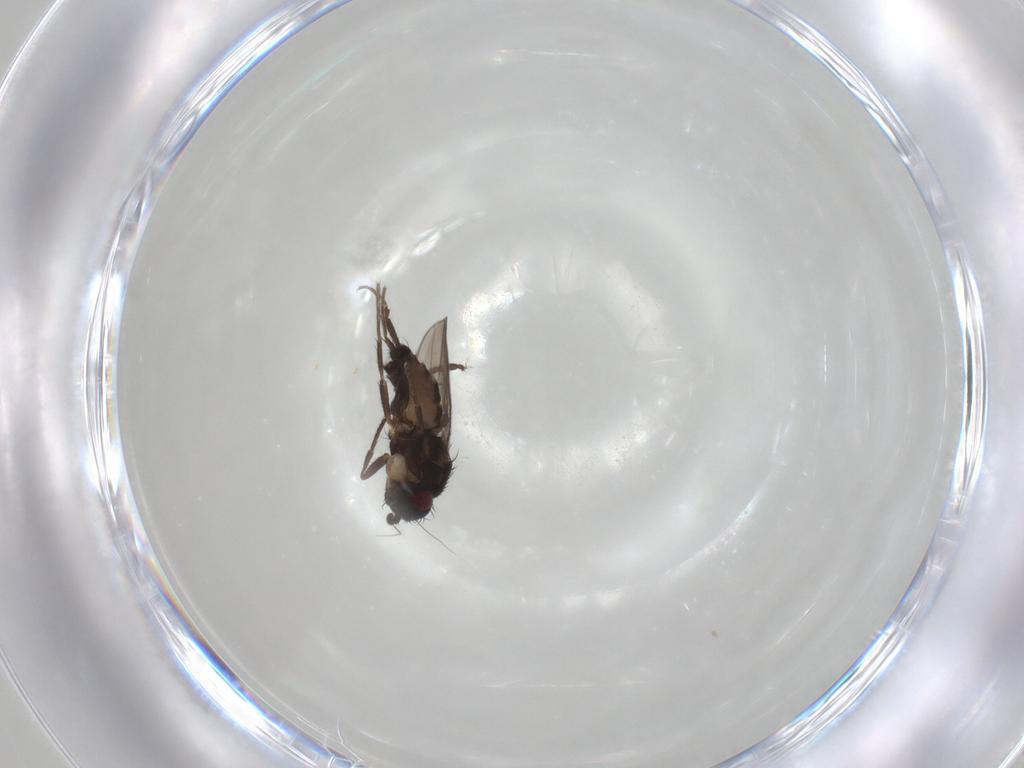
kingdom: Animalia
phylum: Arthropoda
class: Insecta
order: Diptera
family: Sphaeroceridae
